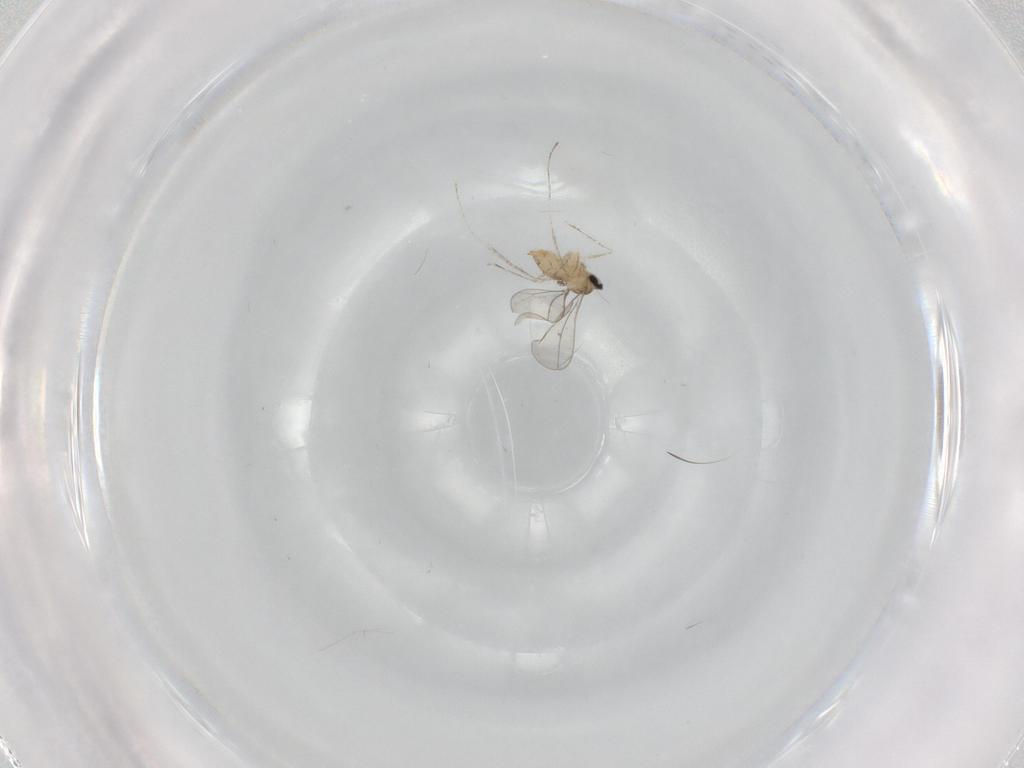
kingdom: Animalia
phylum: Arthropoda
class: Insecta
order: Diptera
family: Cecidomyiidae
